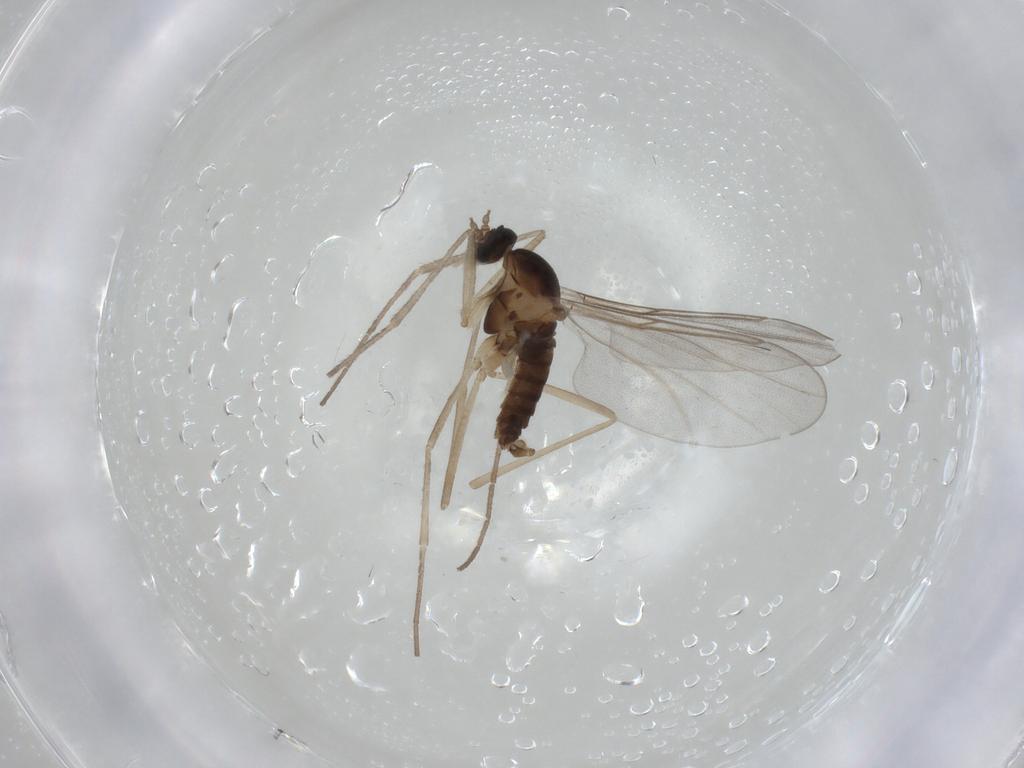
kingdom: Animalia
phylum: Arthropoda
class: Insecta
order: Diptera
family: Cecidomyiidae
